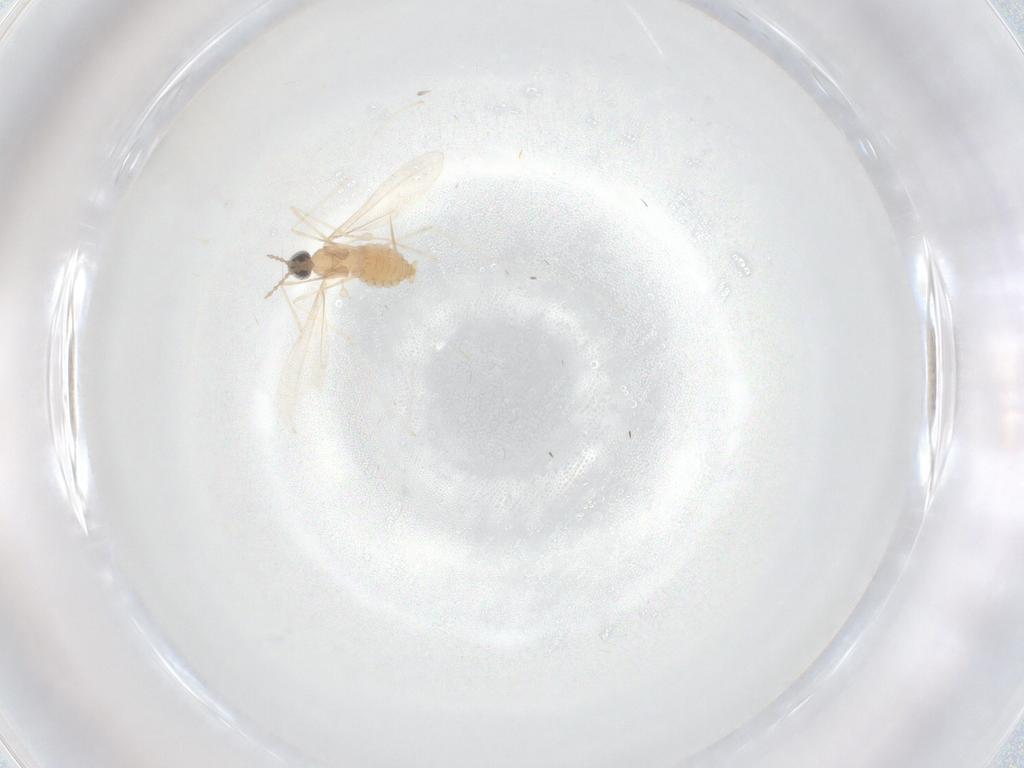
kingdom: Animalia
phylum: Arthropoda
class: Insecta
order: Diptera
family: Cecidomyiidae
